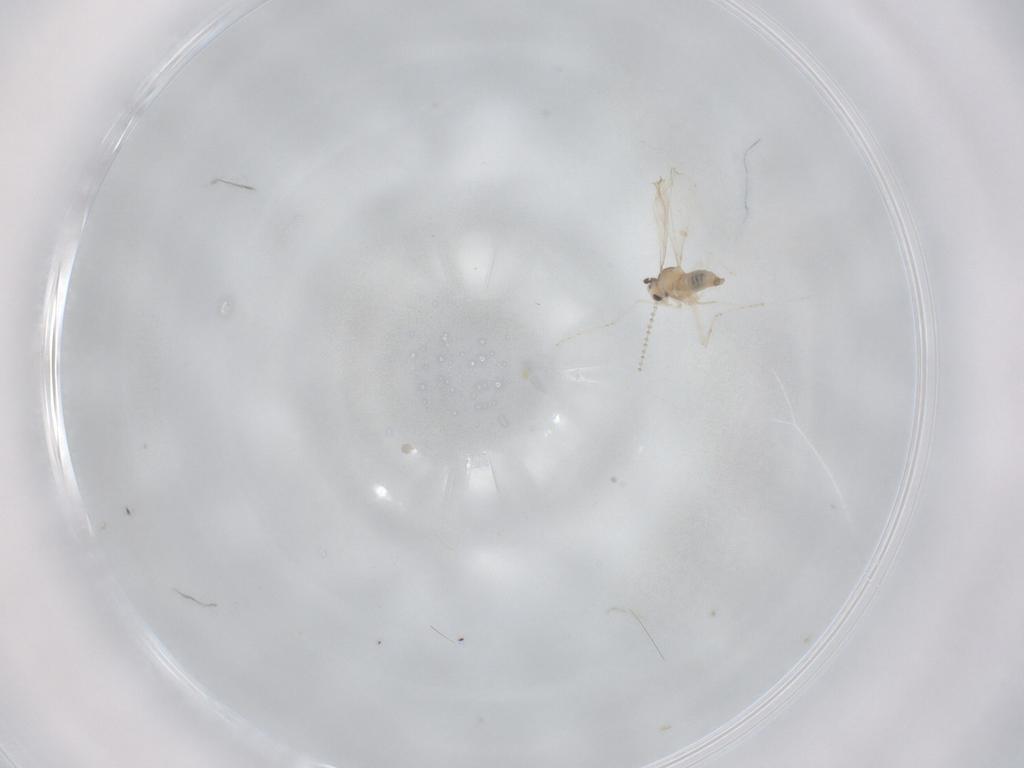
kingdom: Animalia
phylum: Arthropoda
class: Insecta
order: Diptera
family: Cecidomyiidae
